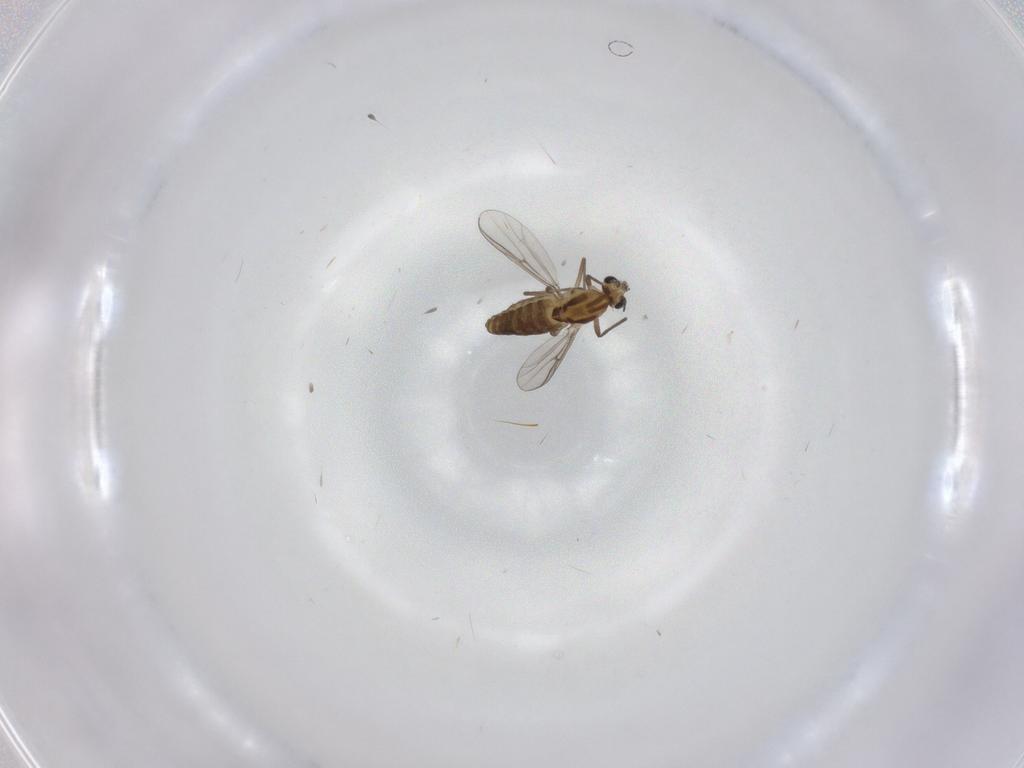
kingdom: Animalia
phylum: Arthropoda
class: Insecta
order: Diptera
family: Chironomidae
